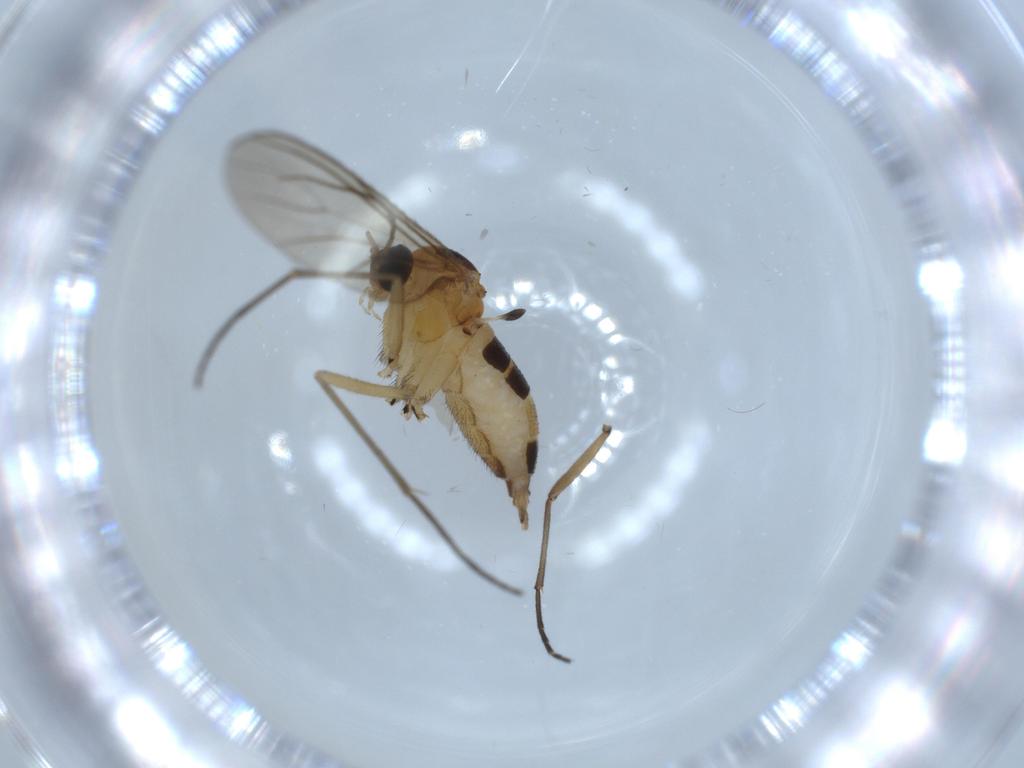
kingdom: Animalia
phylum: Arthropoda
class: Insecta
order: Diptera
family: Sciaridae
